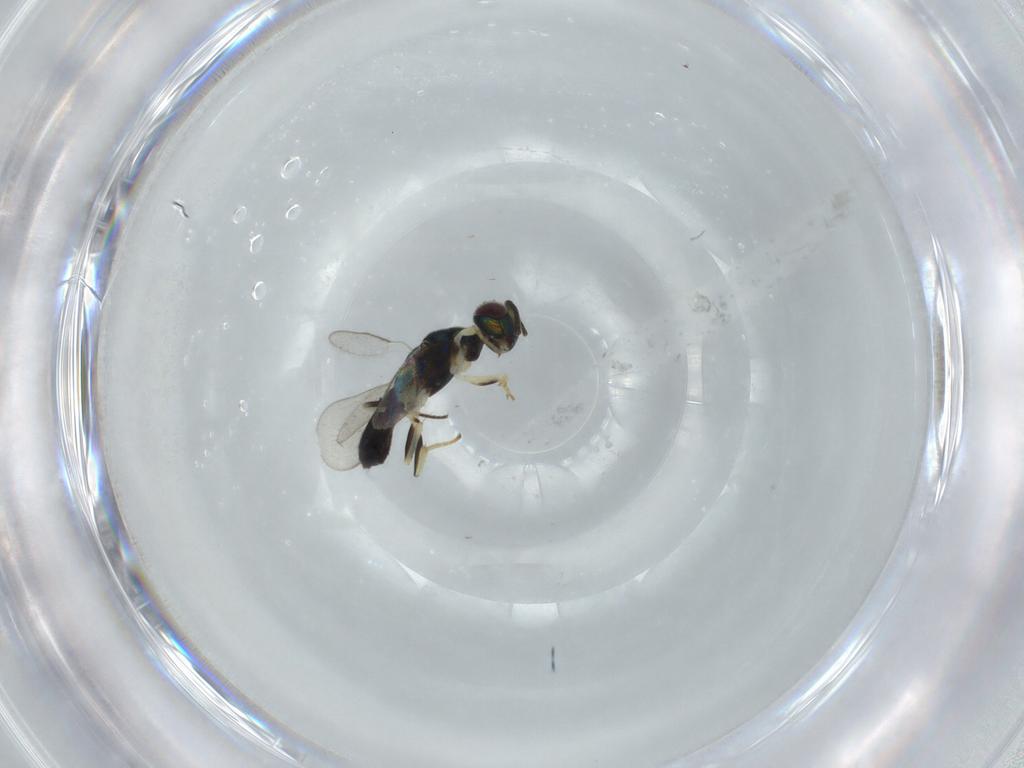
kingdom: Animalia
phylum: Arthropoda
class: Insecta
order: Hymenoptera
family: Eupelmidae
